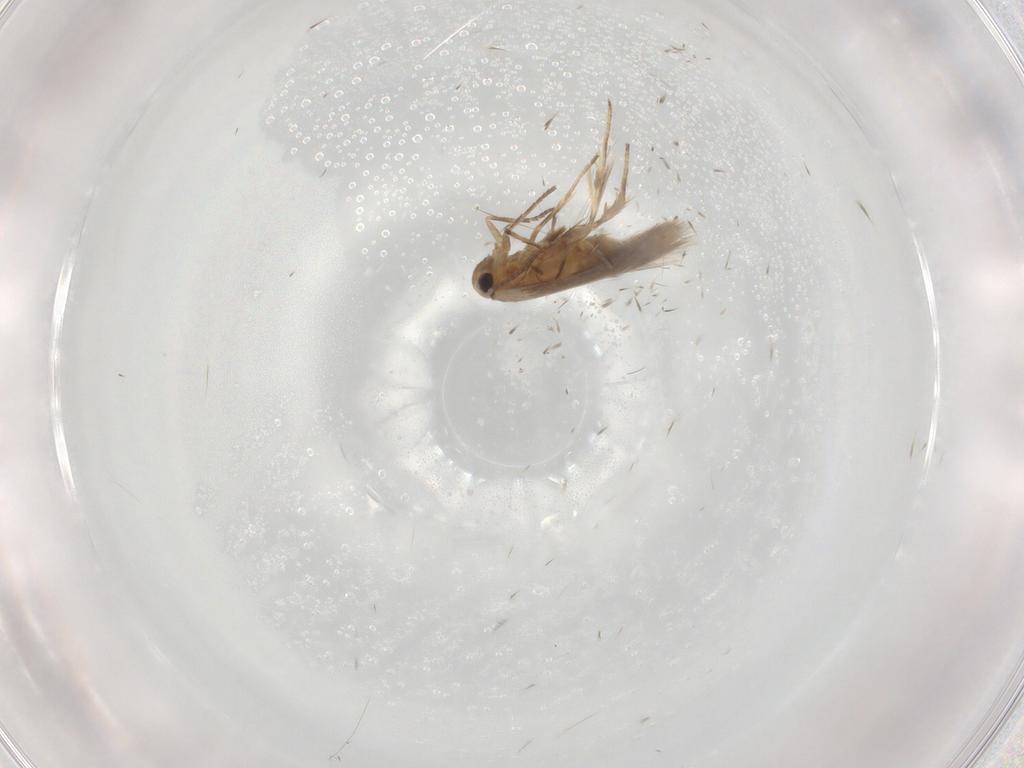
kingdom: Animalia
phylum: Arthropoda
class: Insecta
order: Lepidoptera
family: Nymphalidae
